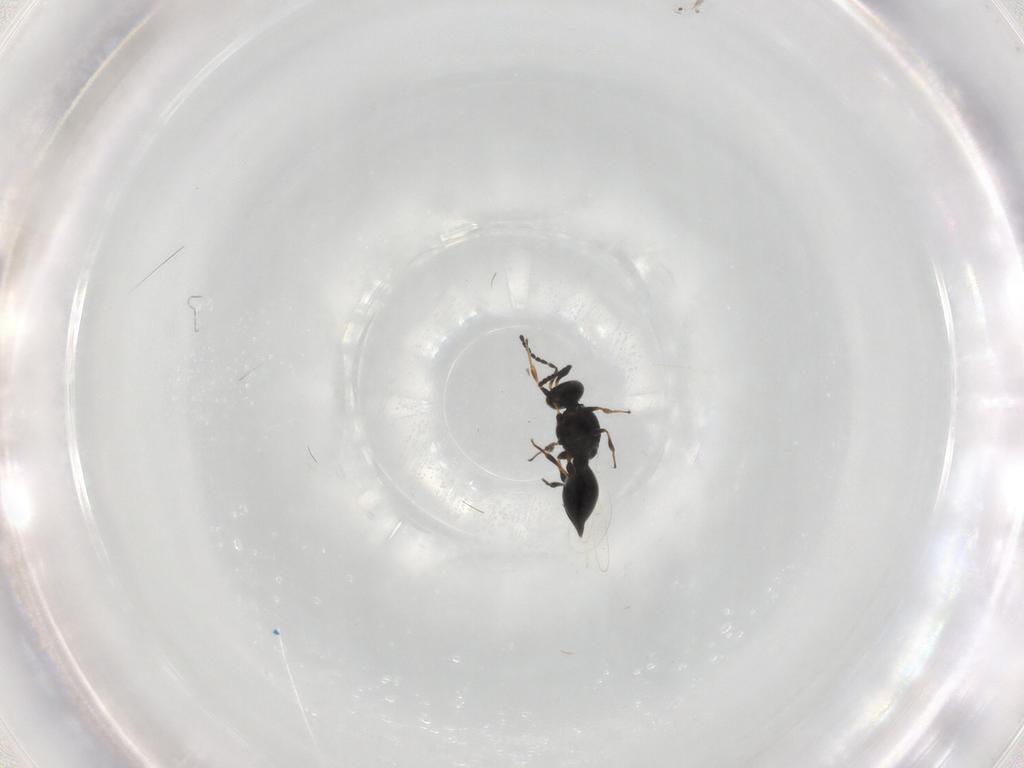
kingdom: Animalia
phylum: Arthropoda
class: Insecta
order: Hymenoptera
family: Platygastridae
